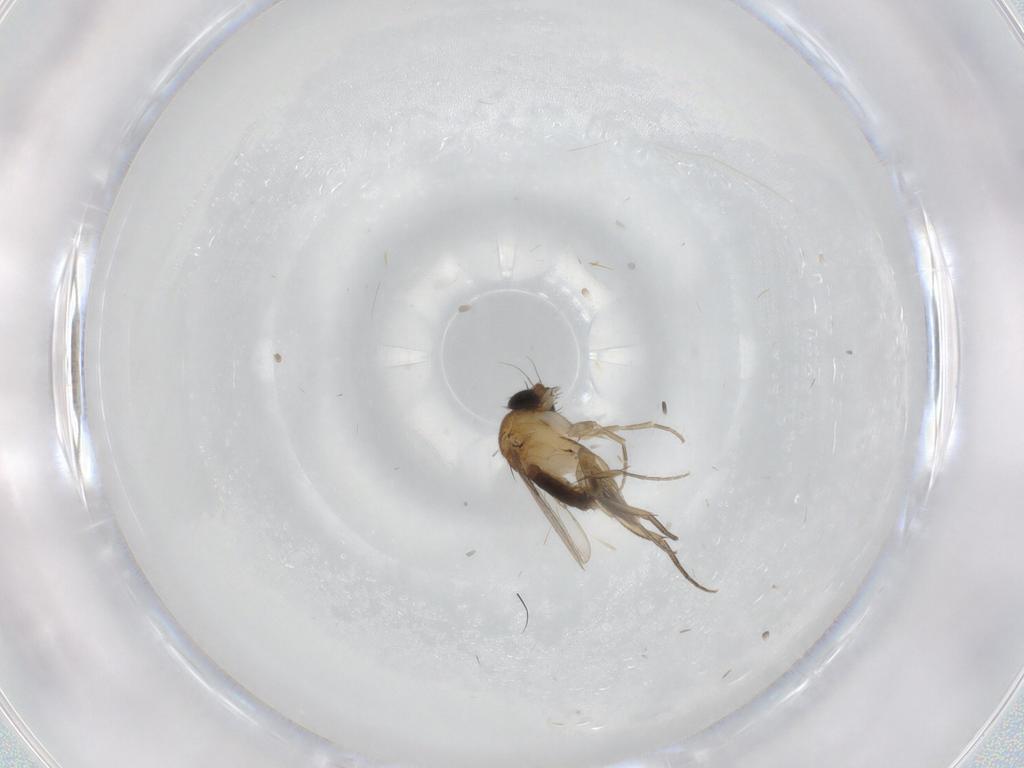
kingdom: Animalia
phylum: Arthropoda
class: Insecta
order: Diptera
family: Phoridae
